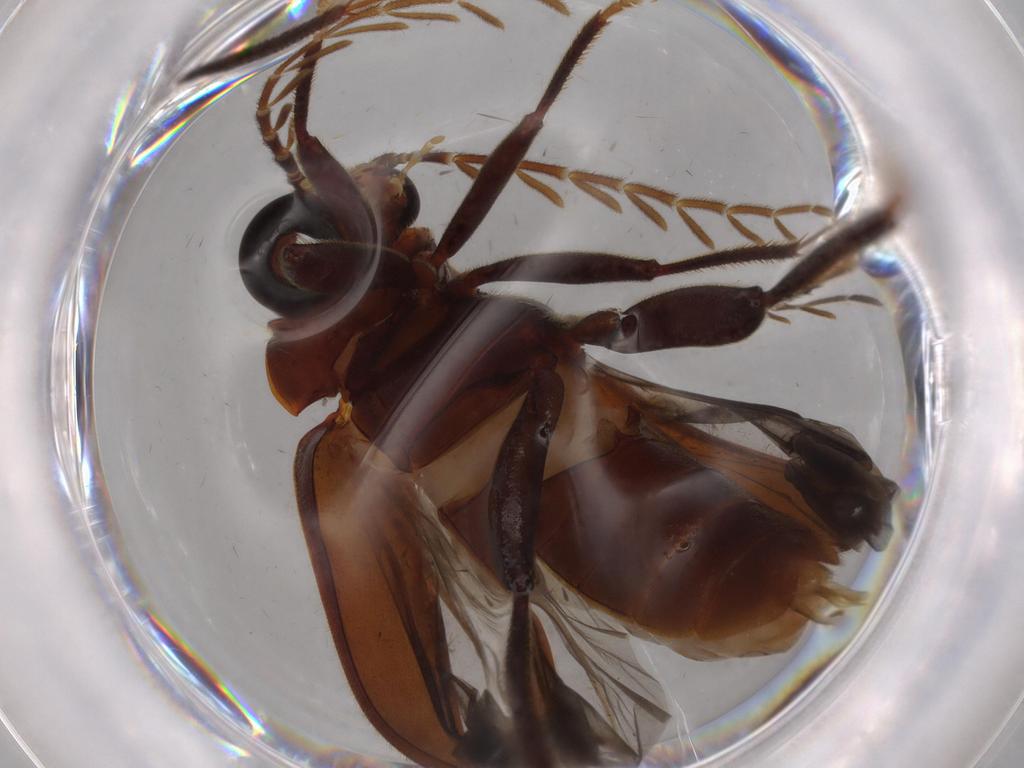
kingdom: Animalia
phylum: Arthropoda
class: Insecta
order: Coleoptera
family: Ptilodactylidae
